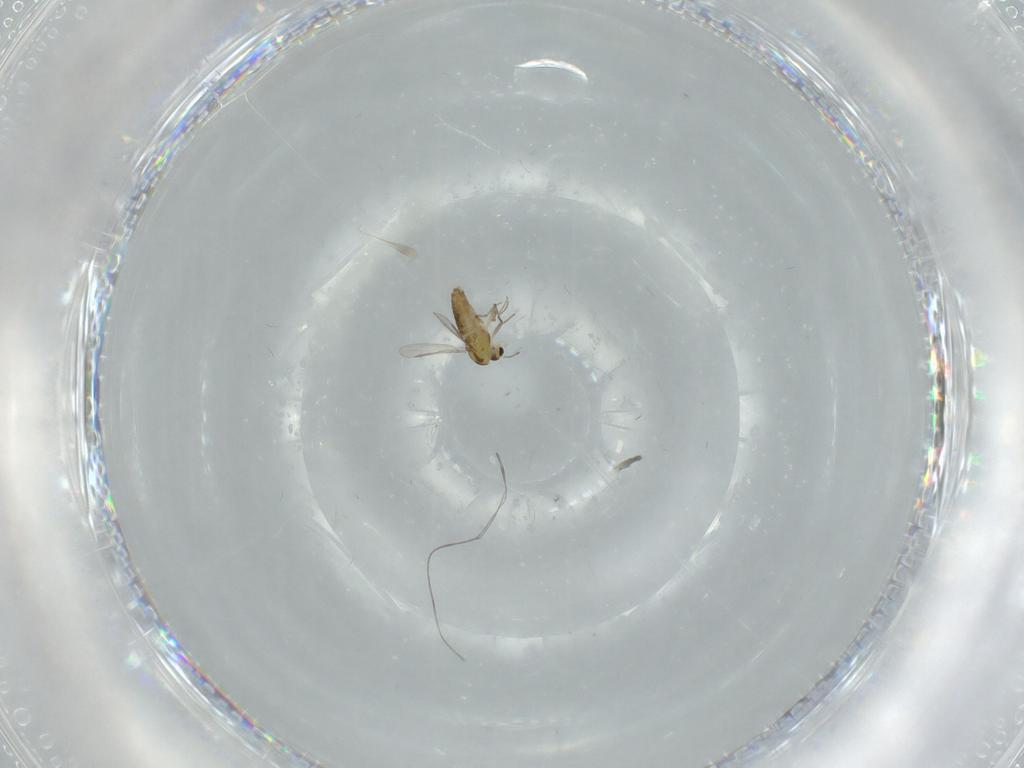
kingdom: Animalia
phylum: Arthropoda
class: Insecta
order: Diptera
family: Chironomidae
